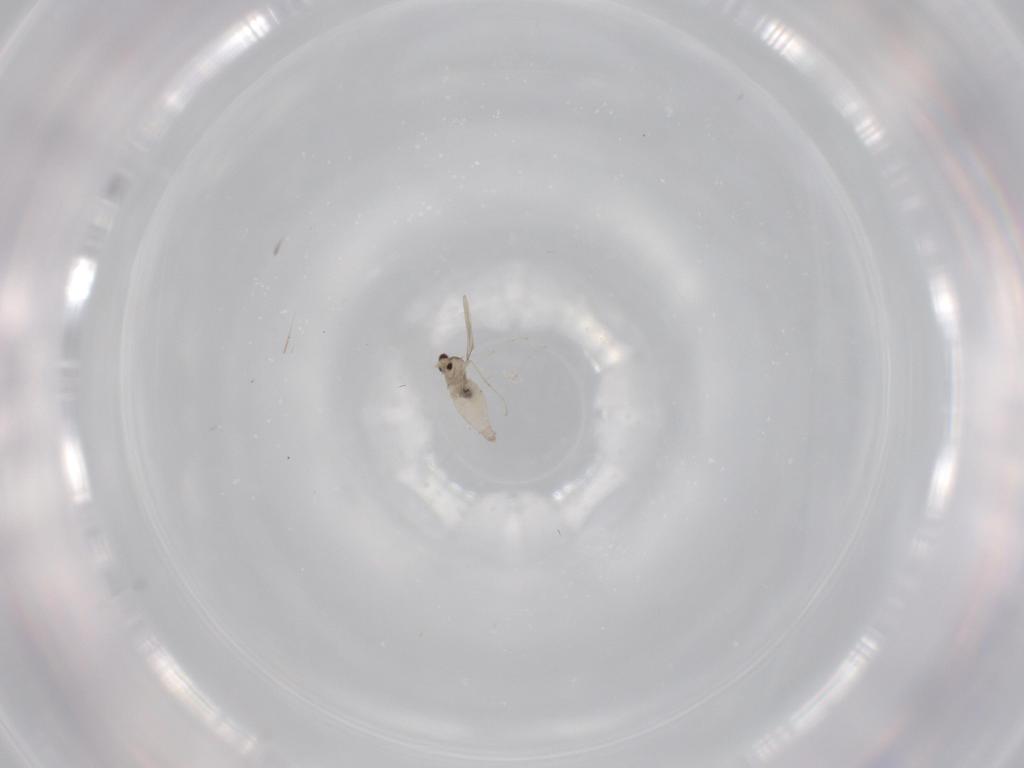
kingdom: Animalia
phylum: Arthropoda
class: Insecta
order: Diptera
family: Cecidomyiidae
